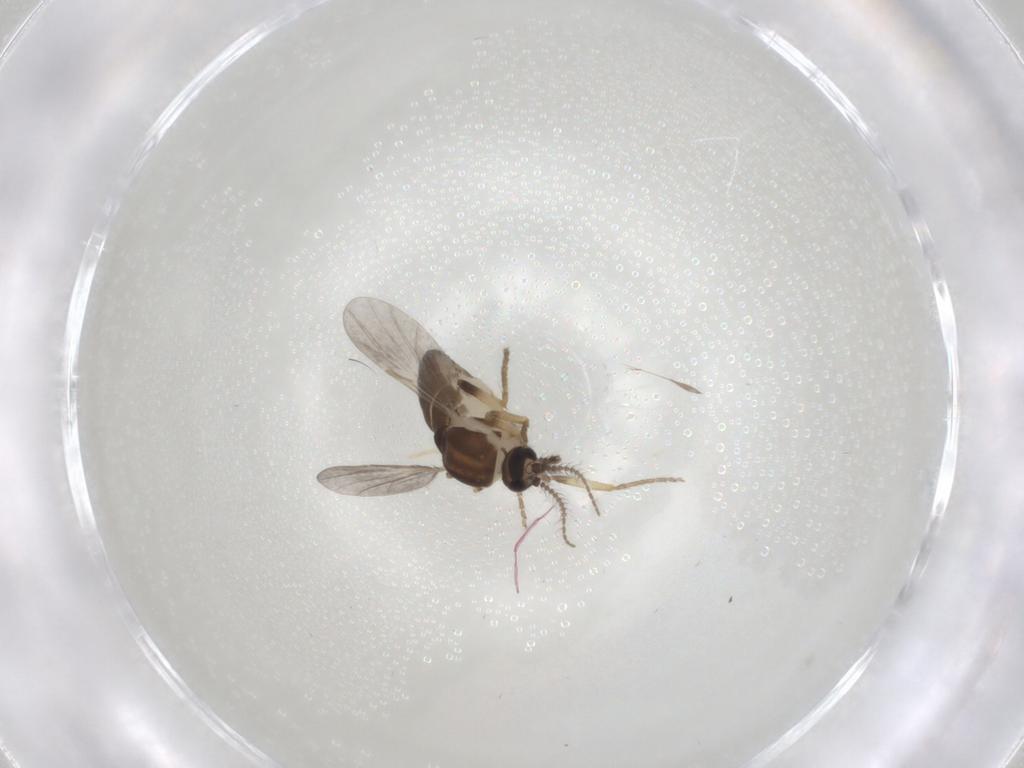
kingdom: Animalia
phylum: Arthropoda
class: Insecta
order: Diptera
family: Ceratopogonidae
